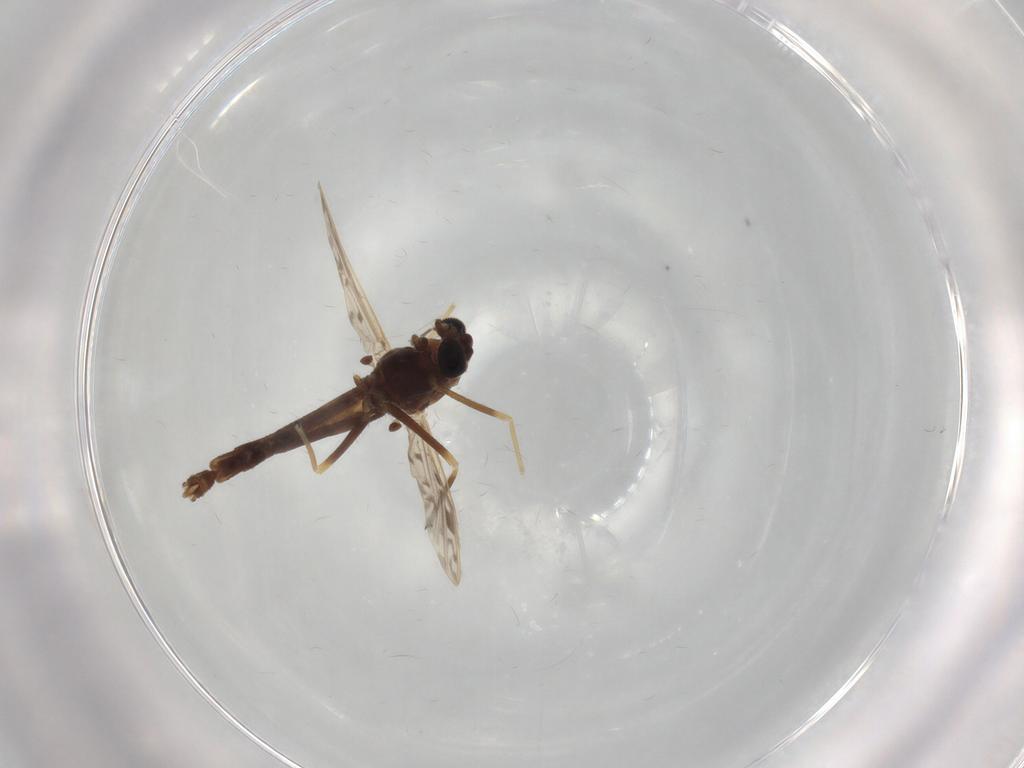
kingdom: Animalia
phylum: Arthropoda
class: Insecta
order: Diptera
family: Chironomidae
